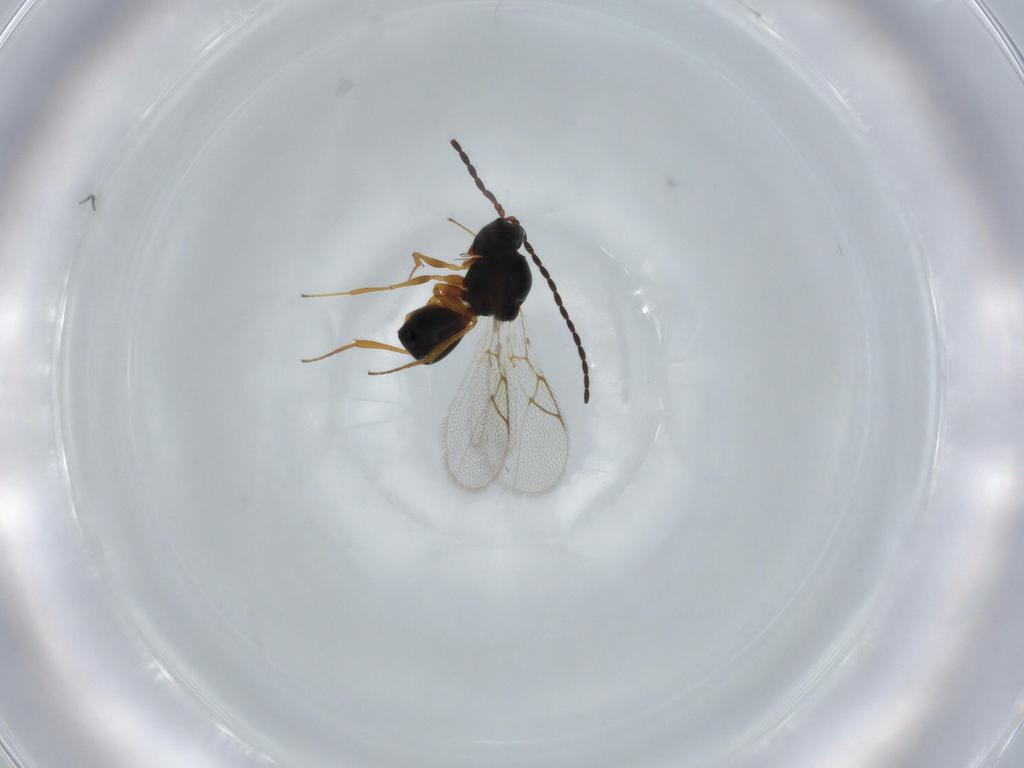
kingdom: Animalia
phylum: Arthropoda
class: Insecta
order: Hymenoptera
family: Figitidae
